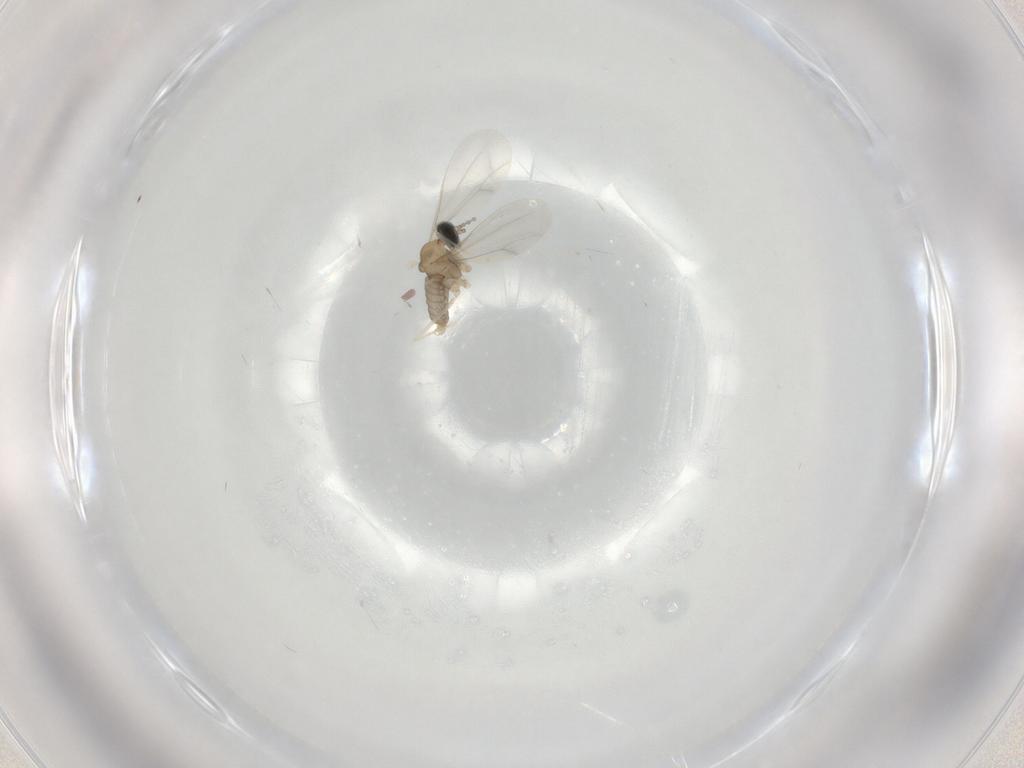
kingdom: Animalia
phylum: Arthropoda
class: Insecta
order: Diptera
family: Cecidomyiidae
